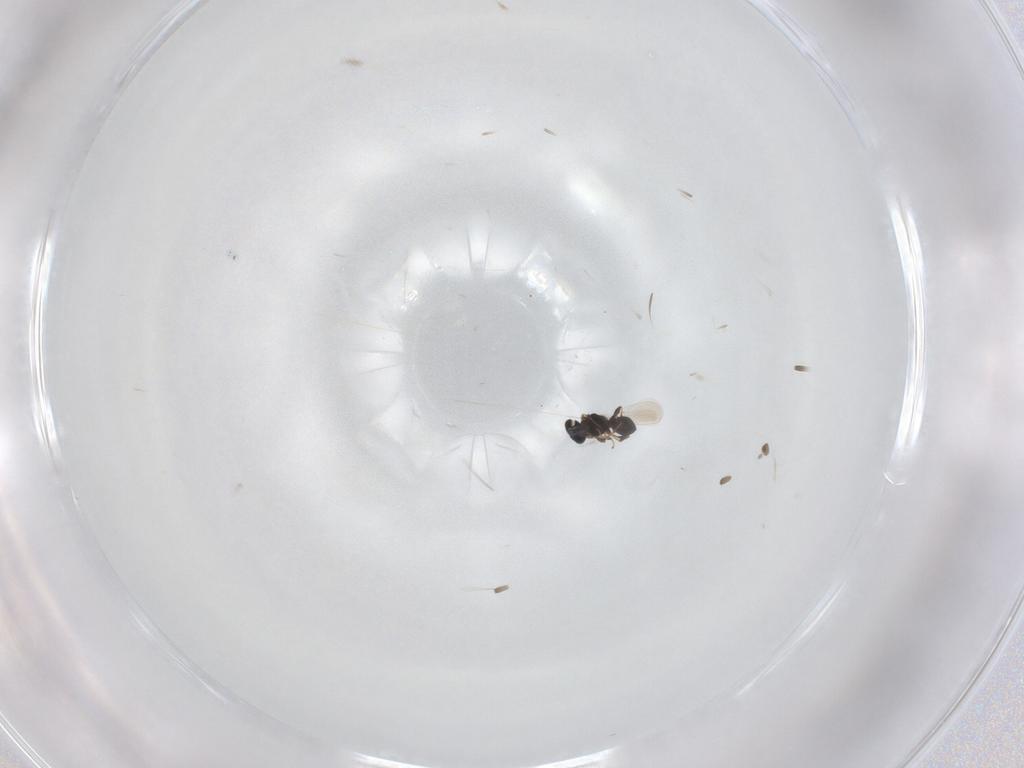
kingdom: Animalia
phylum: Arthropoda
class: Insecta
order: Hymenoptera
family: Platygastridae
